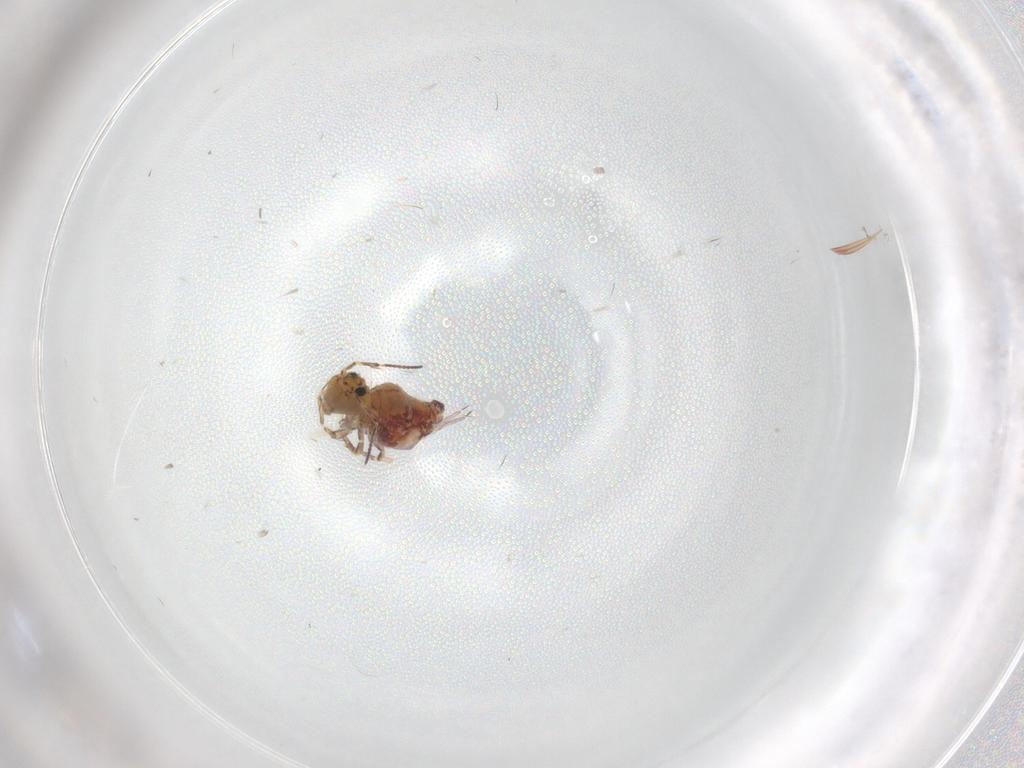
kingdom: Animalia
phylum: Arthropoda
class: Collembola
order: Symphypleona
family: Sminthuridae
